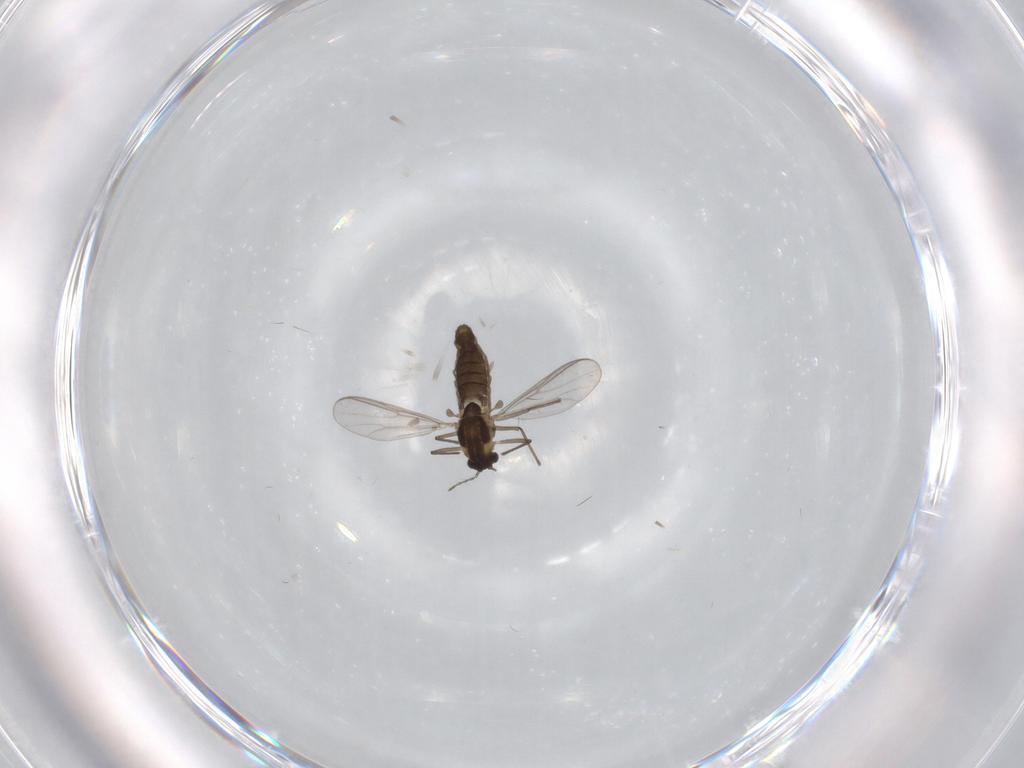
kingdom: Animalia
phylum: Arthropoda
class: Insecta
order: Diptera
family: Chironomidae
